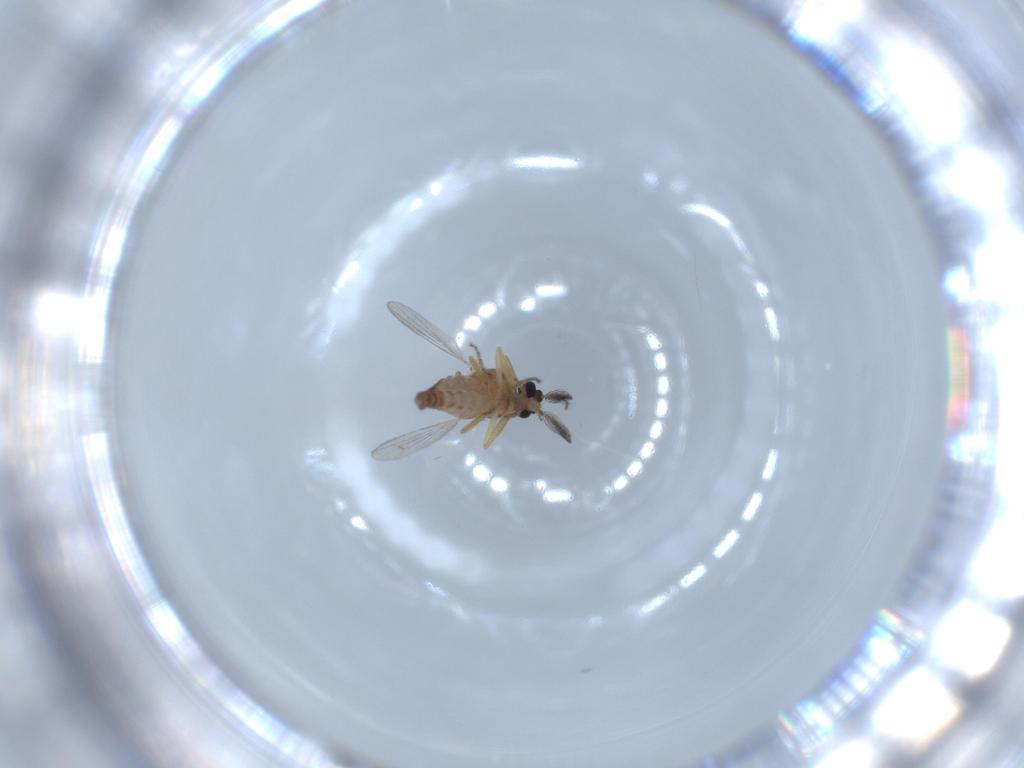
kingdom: Animalia
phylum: Arthropoda
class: Insecta
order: Diptera
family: Ceratopogonidae
